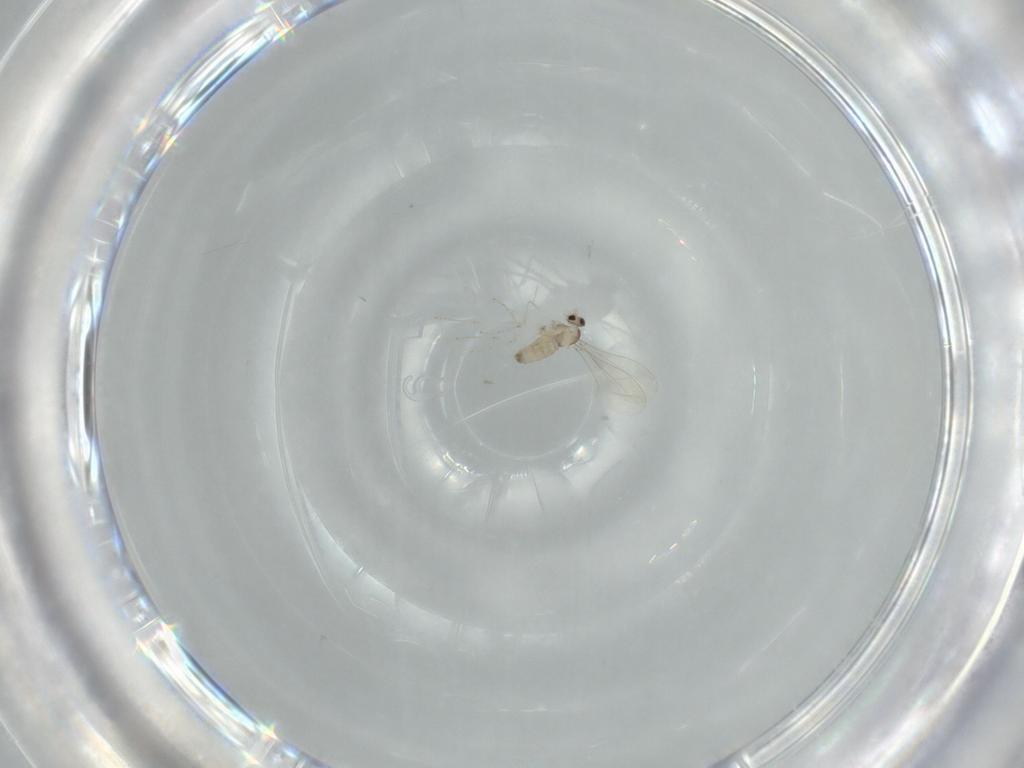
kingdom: Animalia
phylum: Arthropoda
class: Insecta
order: Diptera
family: Cecidomyiidae
